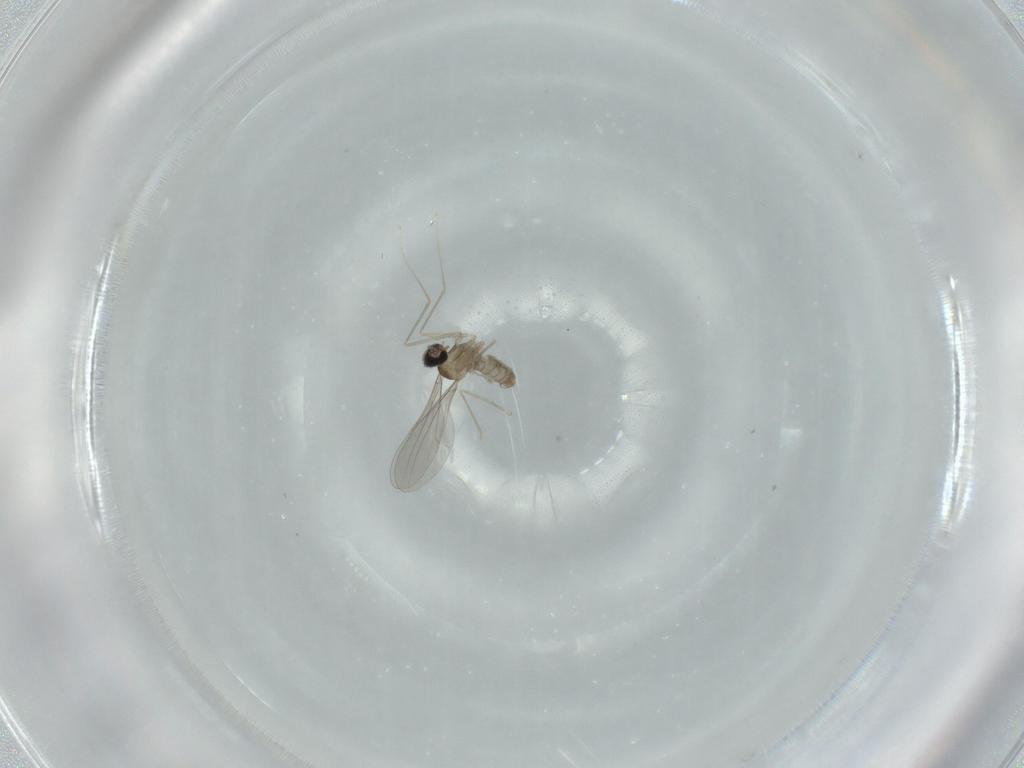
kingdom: Animalia
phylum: Arthropoda
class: Insecta
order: Diptera
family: Cecidomyiidae
